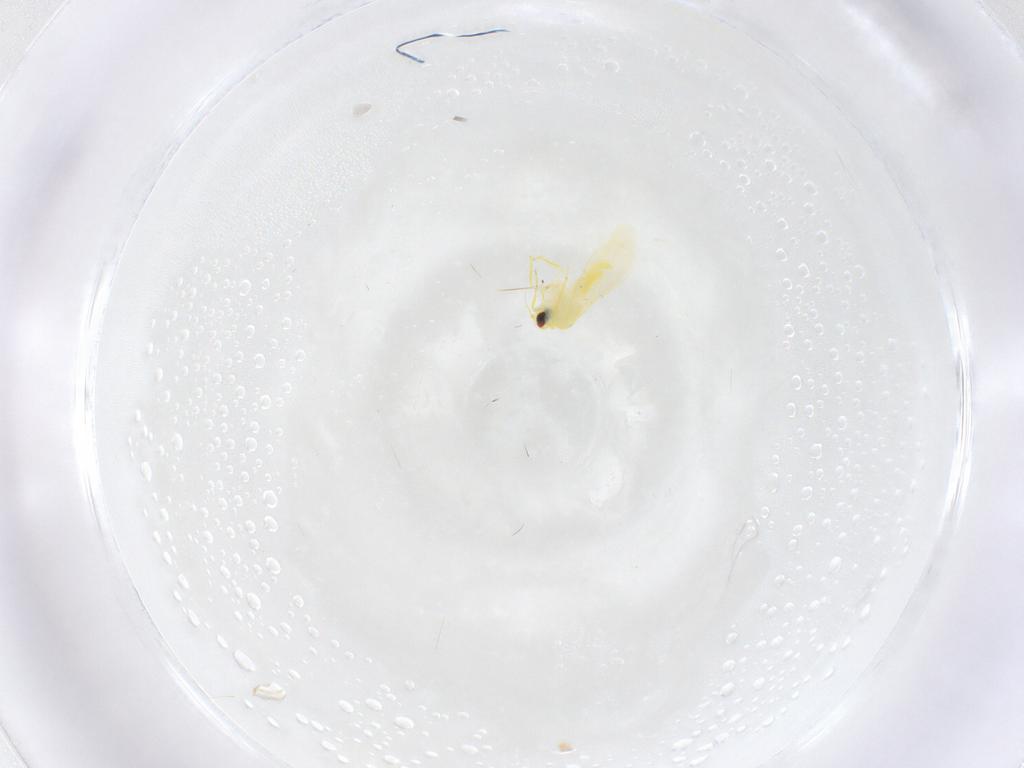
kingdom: Animalia
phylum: Arthropoda
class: Insecta
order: Hemiptera
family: Aleyrodidae
